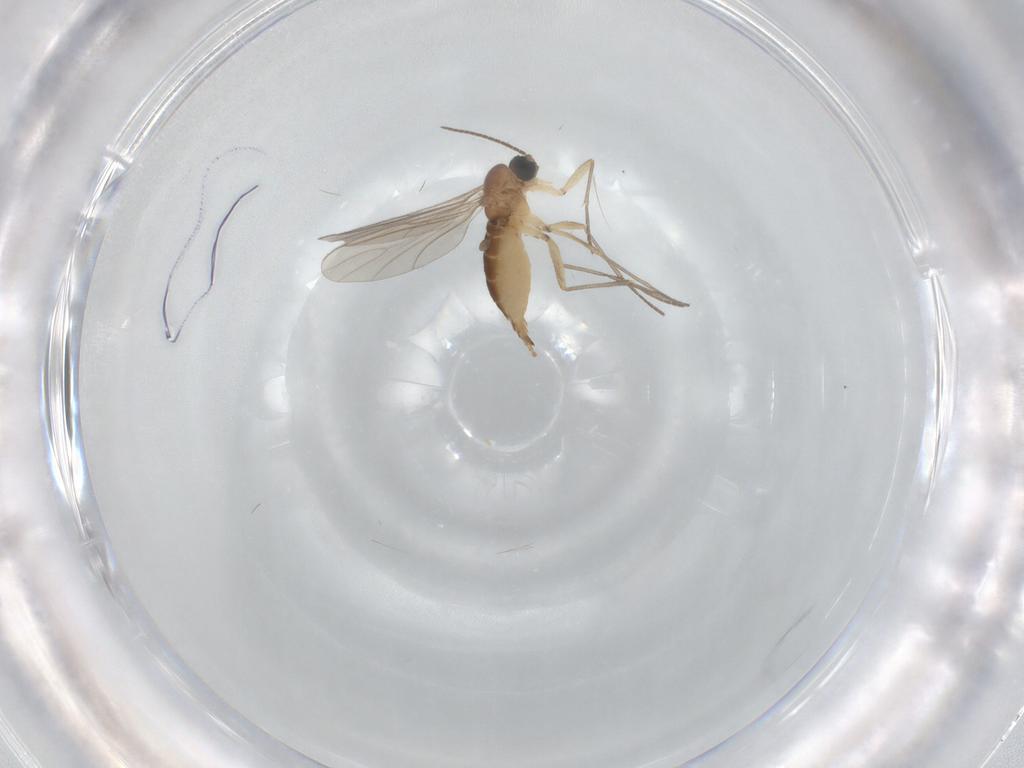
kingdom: Animalia
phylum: Arthropoda
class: Insecta
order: Diptera
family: Sciaridae
